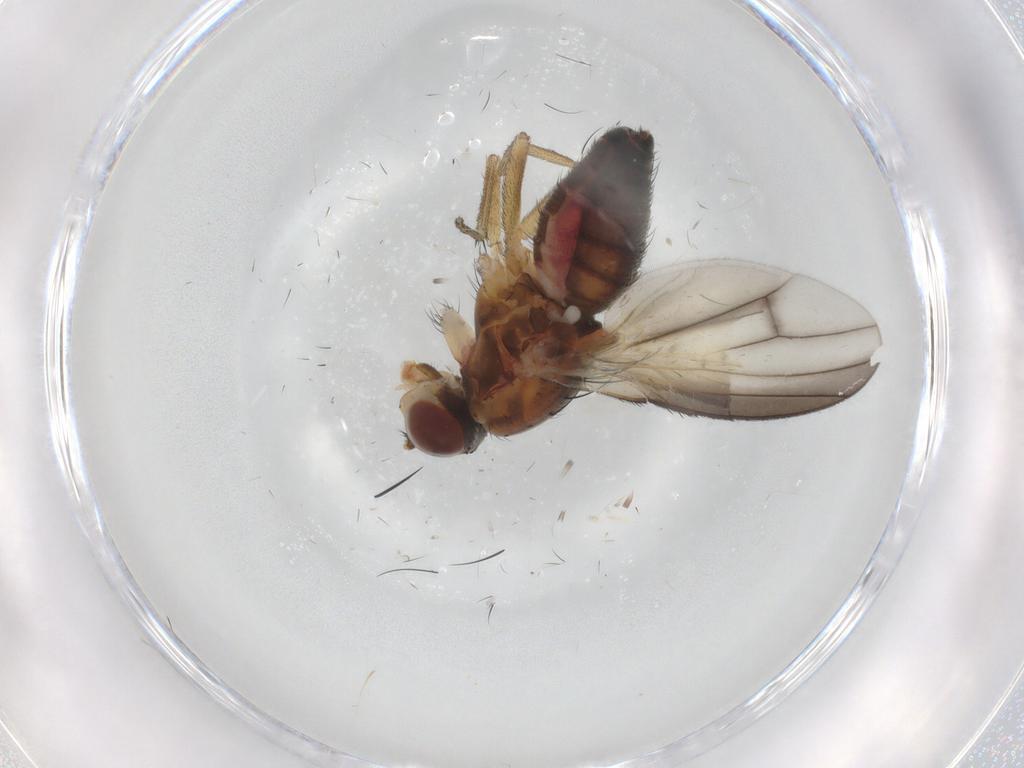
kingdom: Animalia
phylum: Arthropoda
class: Insecta
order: Diptera
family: Heleomyzidae
